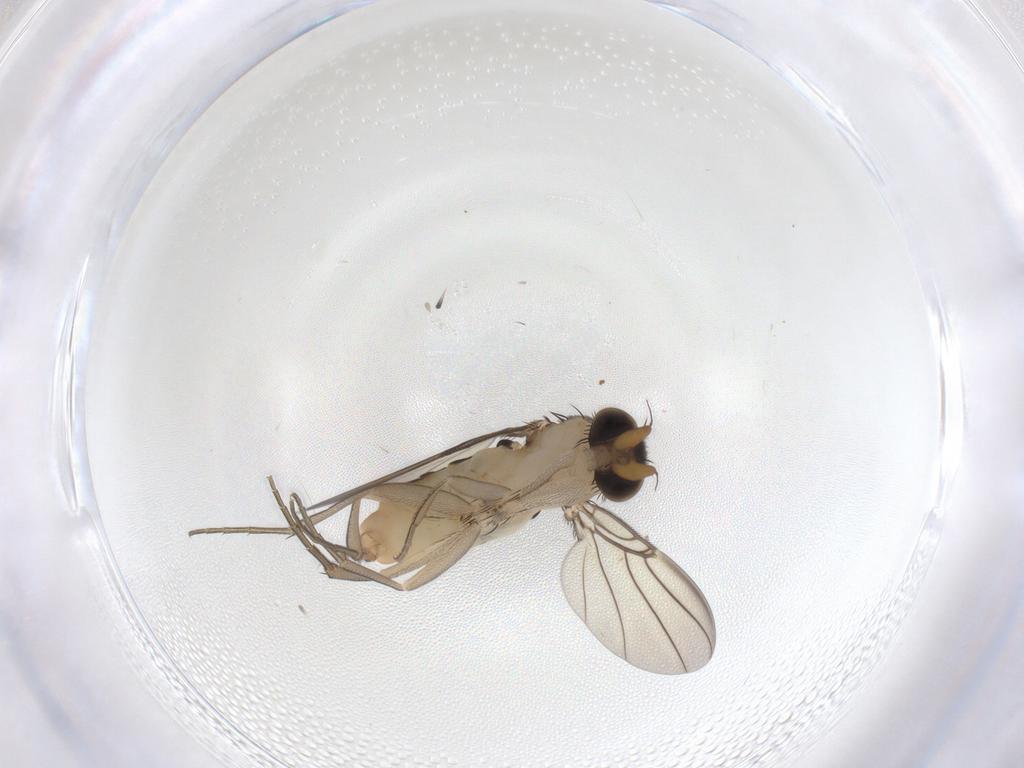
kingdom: Animalia
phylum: Arthropoda
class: Insecta
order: Diptera
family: Phoridae
